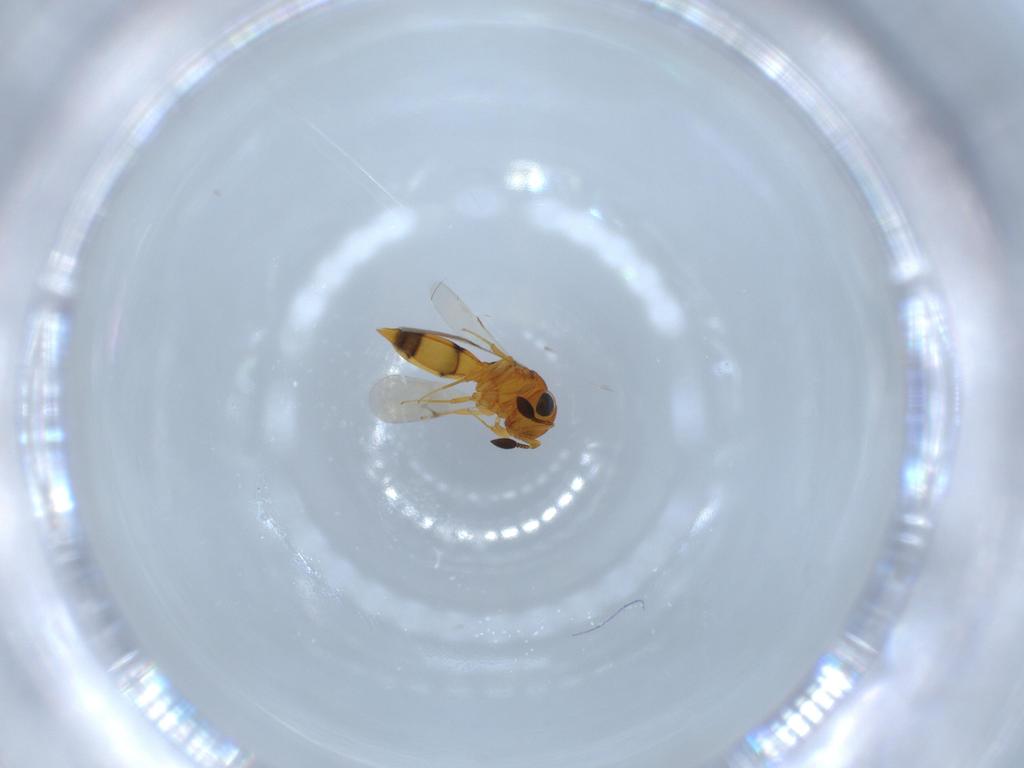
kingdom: Animalia
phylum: Arthropoda
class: Insecta
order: Hymenoptera
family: Scelionidae
